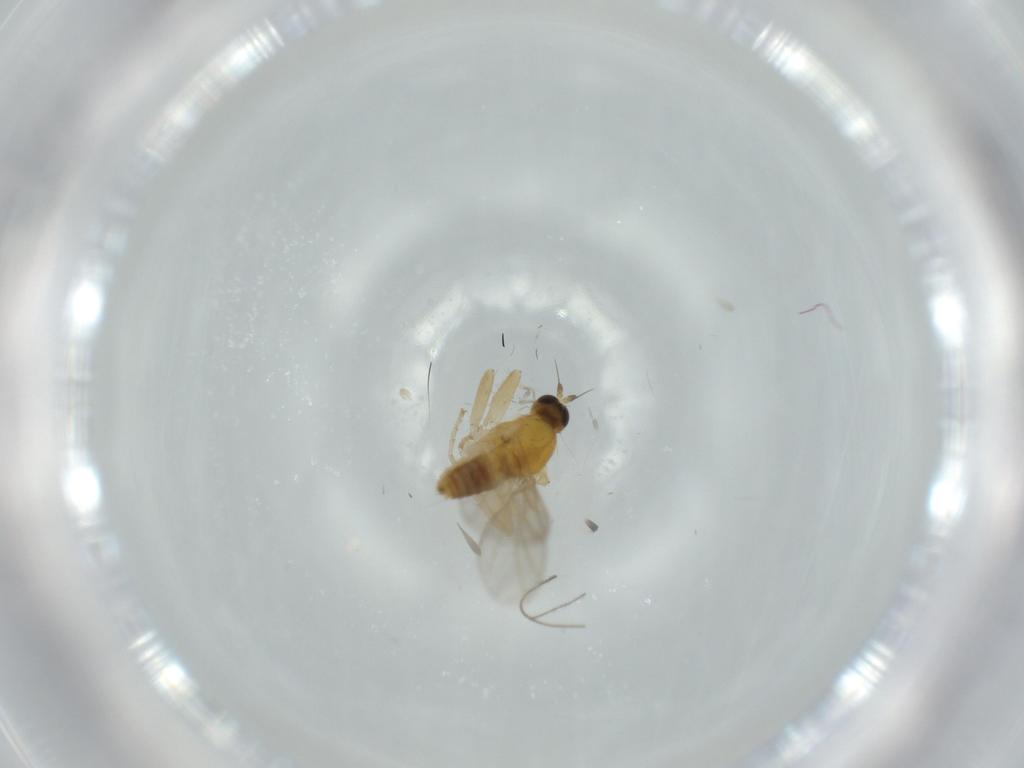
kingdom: Animalia
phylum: Arthropoda
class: Insecta
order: Diptera
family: Hybotidae
